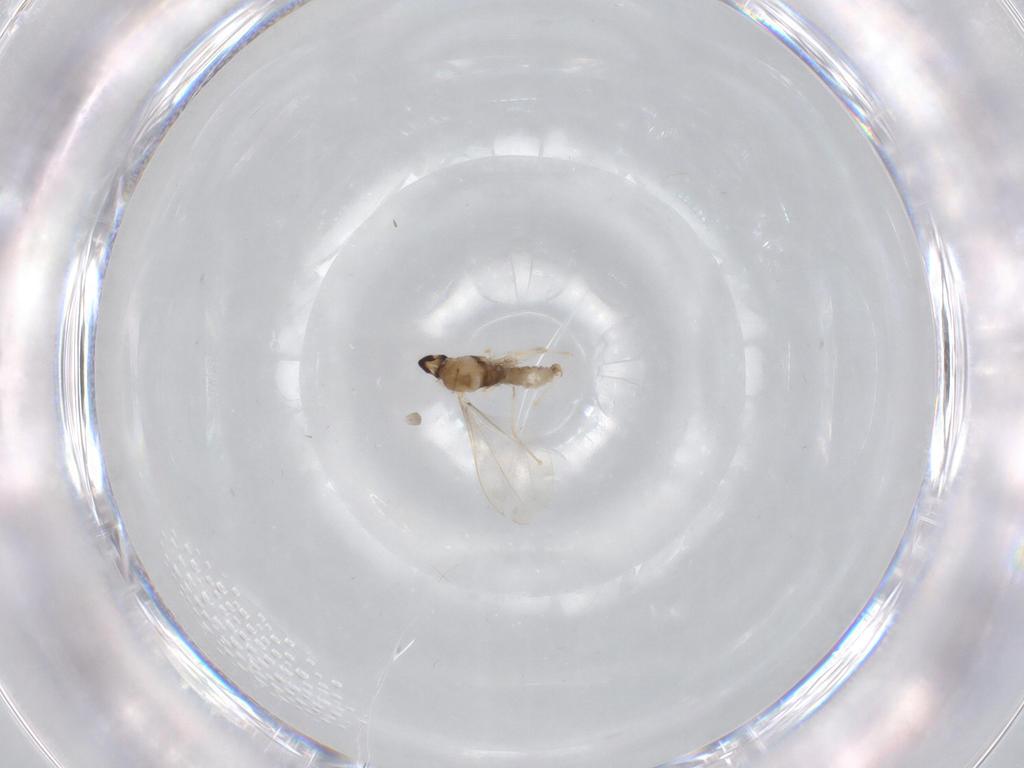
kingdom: Animalia
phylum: Arthropoda
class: Insecta
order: Diptera
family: Cecidomyiidae
